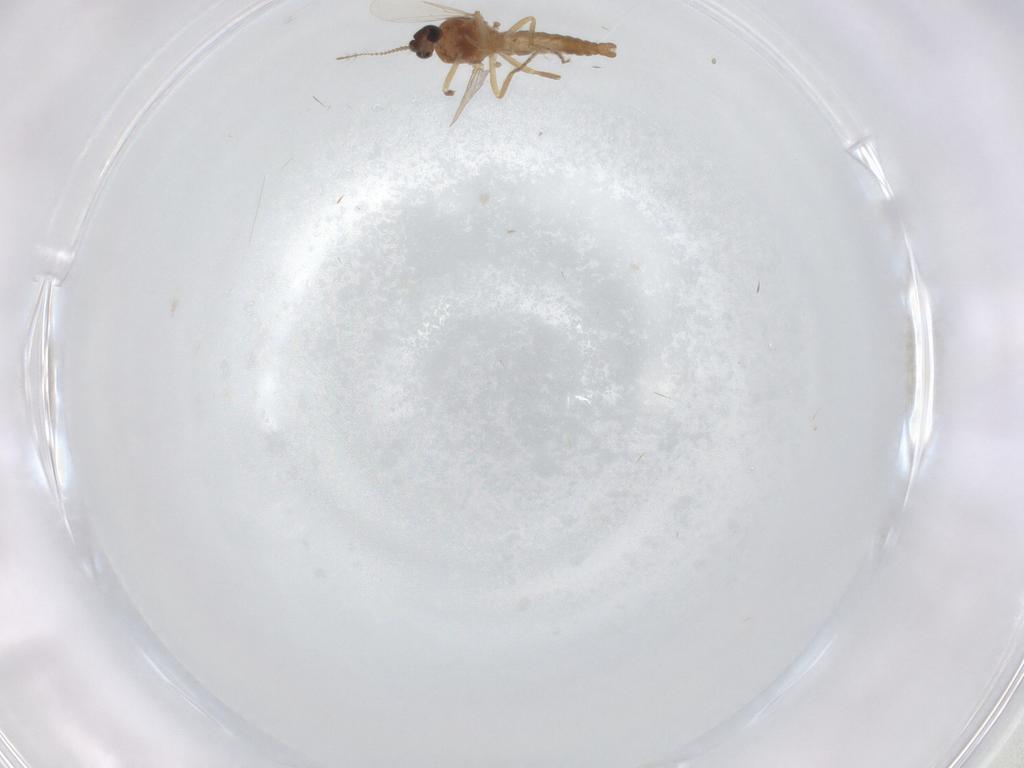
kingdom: Animalia
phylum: Arthropoda
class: Insecta
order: Diptera
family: Ceratopogonidae
